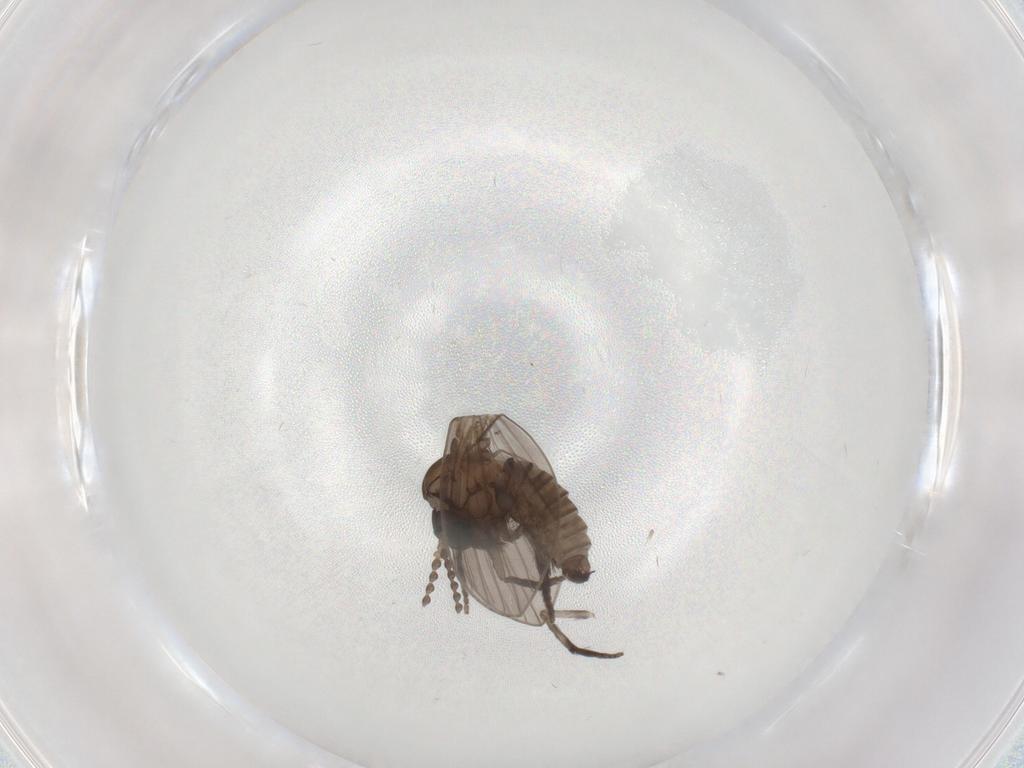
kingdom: Animalia
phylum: Arthropoda
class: Insecta
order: Diptera
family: Psychodidae
